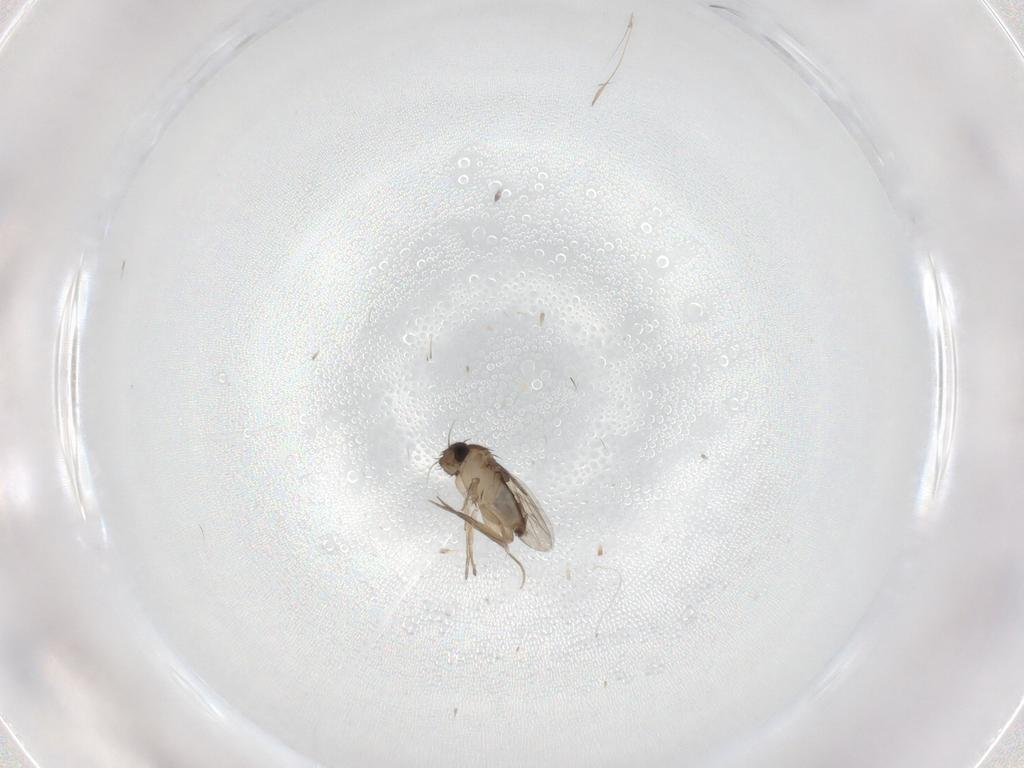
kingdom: Animalia
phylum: Arthropoda
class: Insecta
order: Diptera
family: Phoridae
